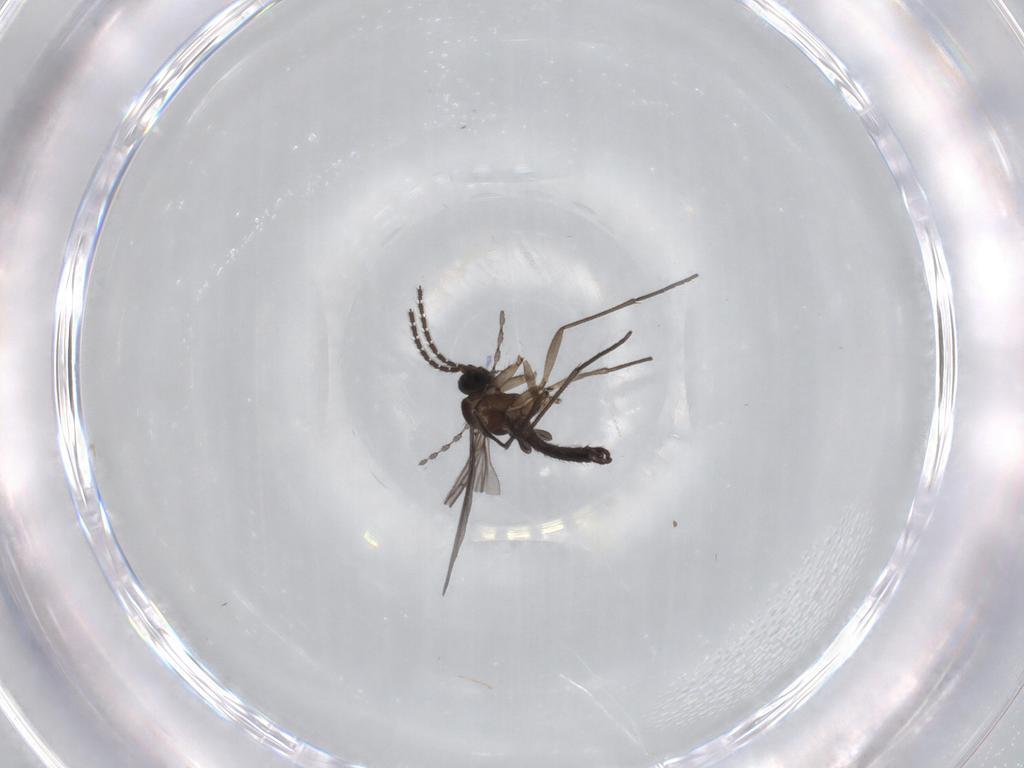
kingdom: Animalia
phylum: Arthropoda
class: Insecta
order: Diptera
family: Sciaridae
